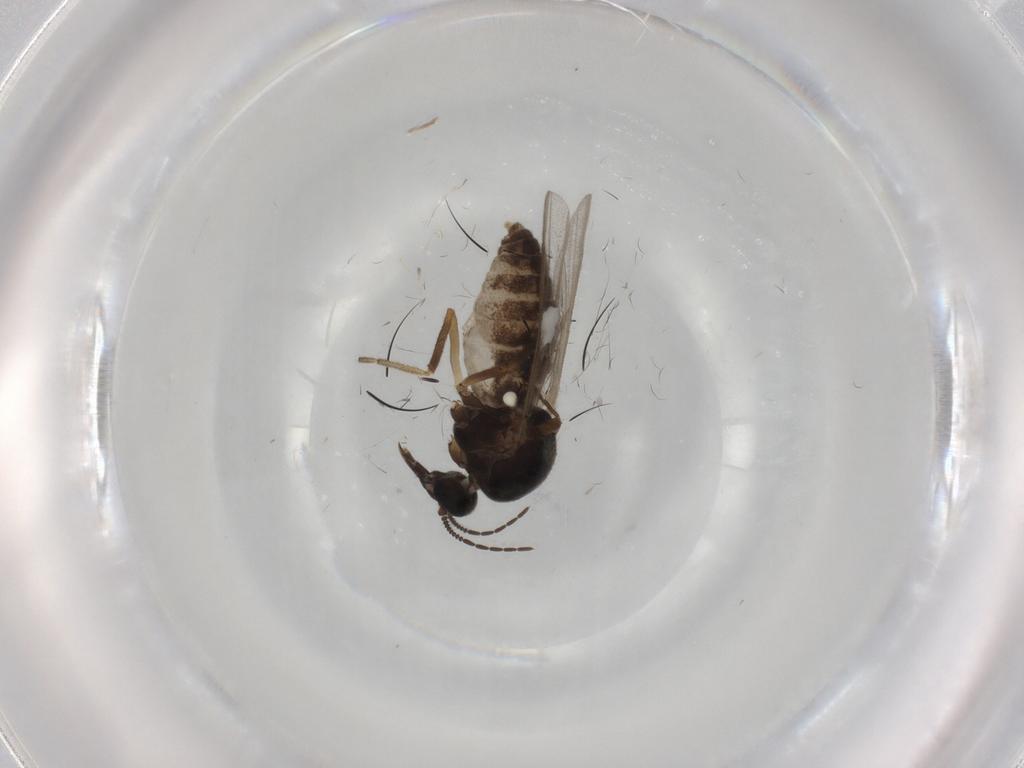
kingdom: Animalia
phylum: Arthropoda
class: Insecta
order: Diptera
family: Ceratopogonidae
